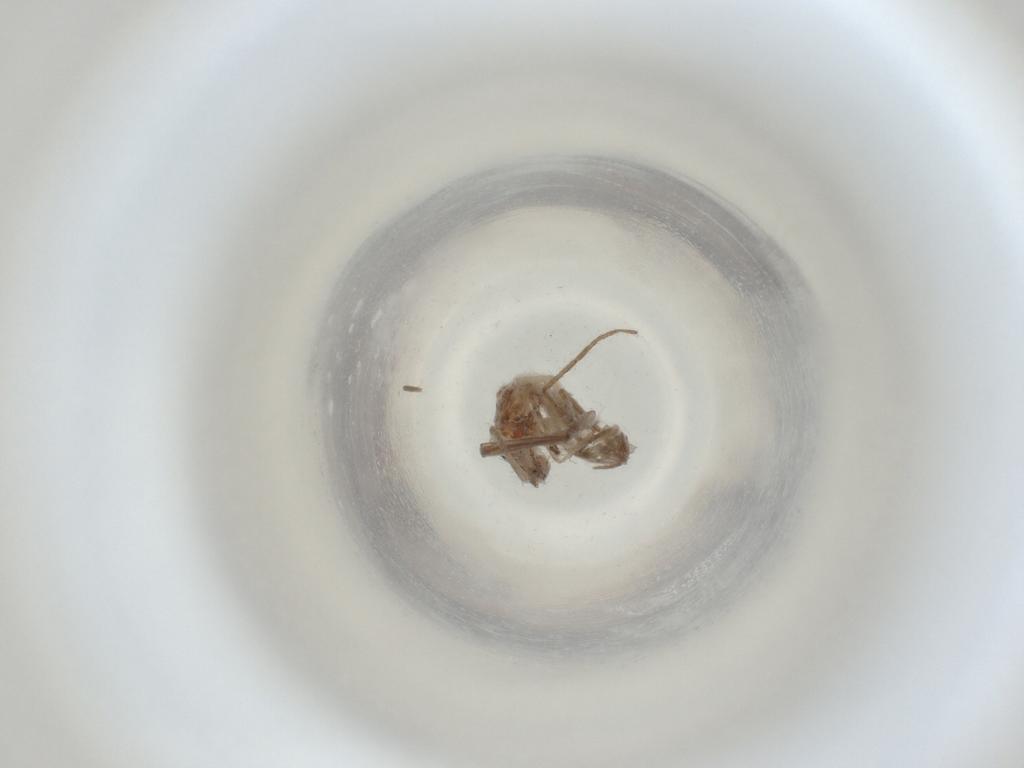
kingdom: Animalia
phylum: Arthropoda
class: Insecta
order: Diptera
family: Cecidomyiidae
